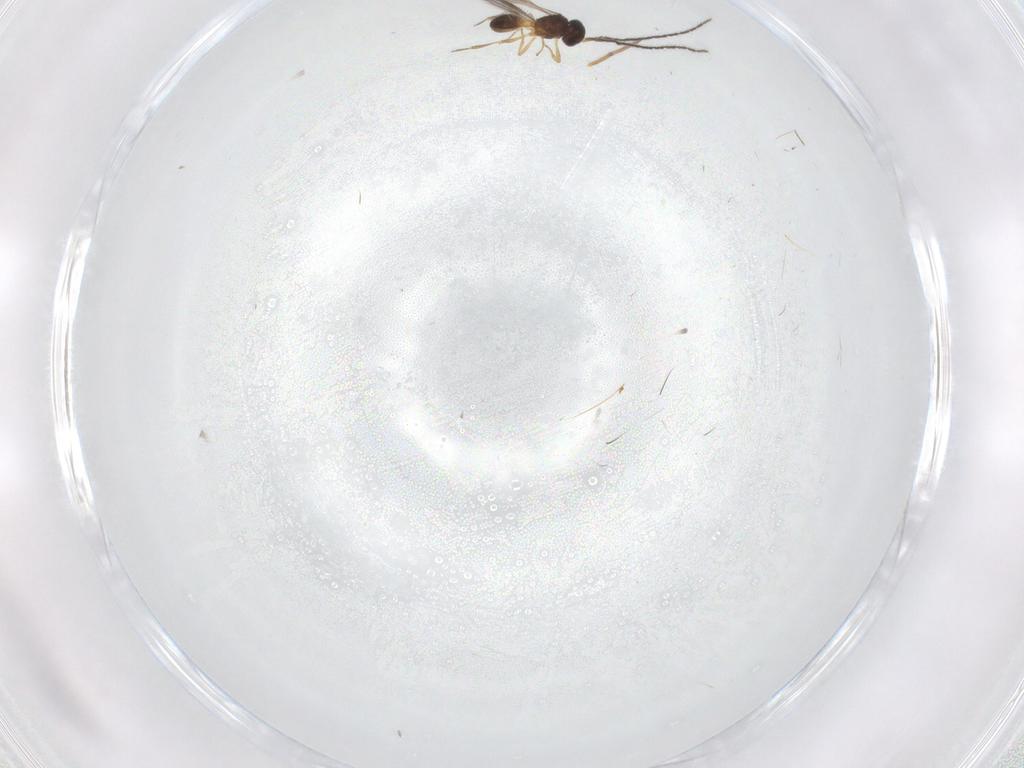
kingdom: Animalia
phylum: Arthropoda
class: Insecta
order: Hymenoptera
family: Scelionidae
